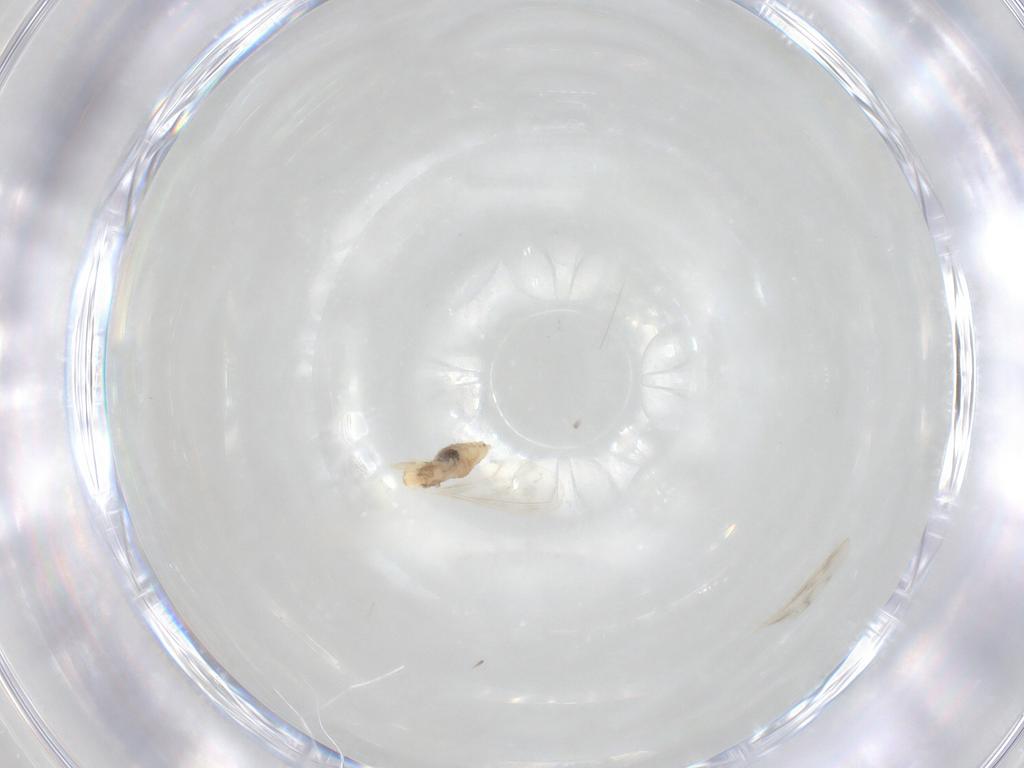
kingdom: Animalia
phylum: Arthropoda
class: Insecta
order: Diptera
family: Cecidomyiidae
